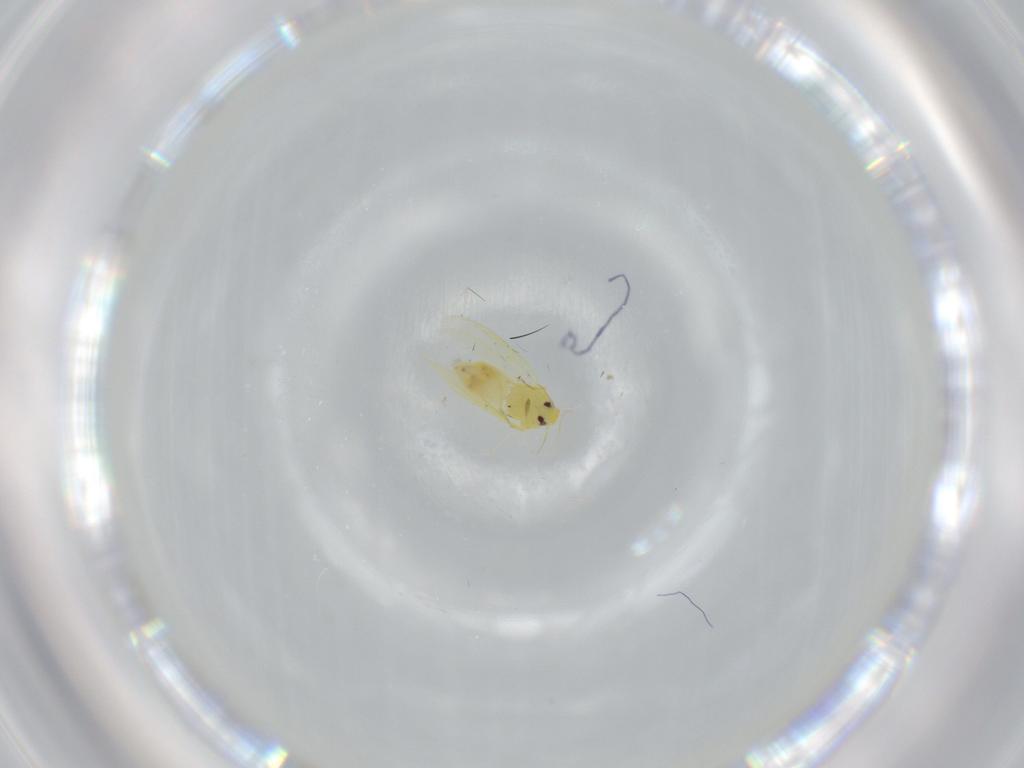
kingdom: Animalia
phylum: Arthropoda
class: Insecta
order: Hemiptera
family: Aleyrodidae
